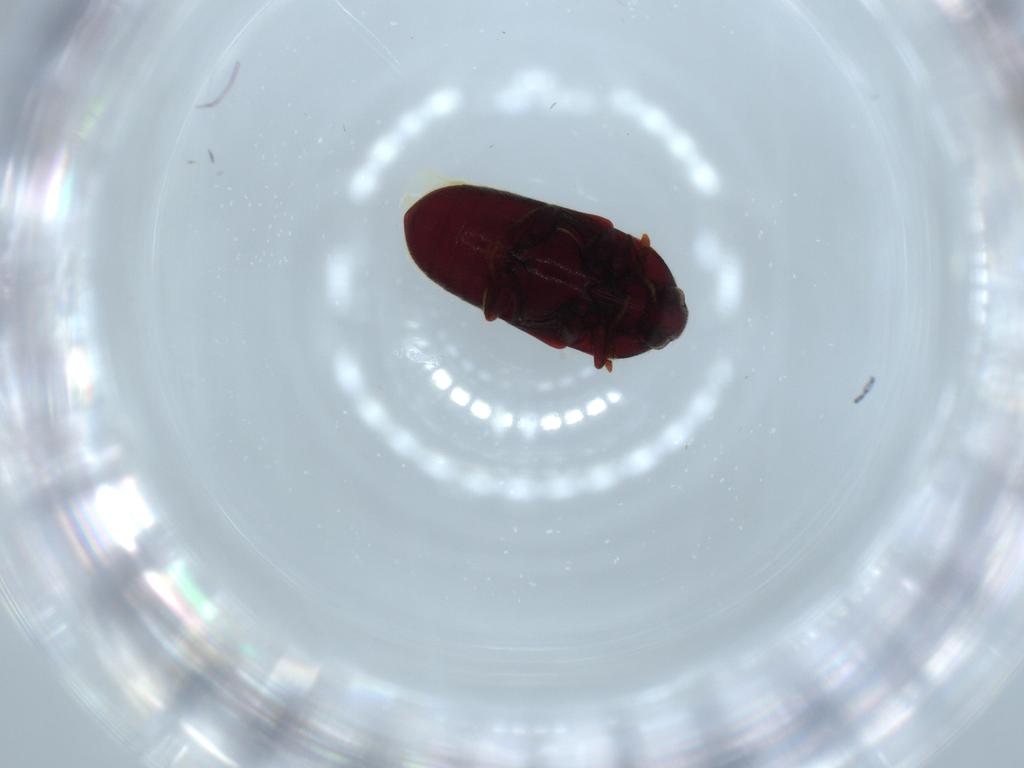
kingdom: Animalia
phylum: Arthropoda
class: Insecta
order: Coleoptera
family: Throscidae
